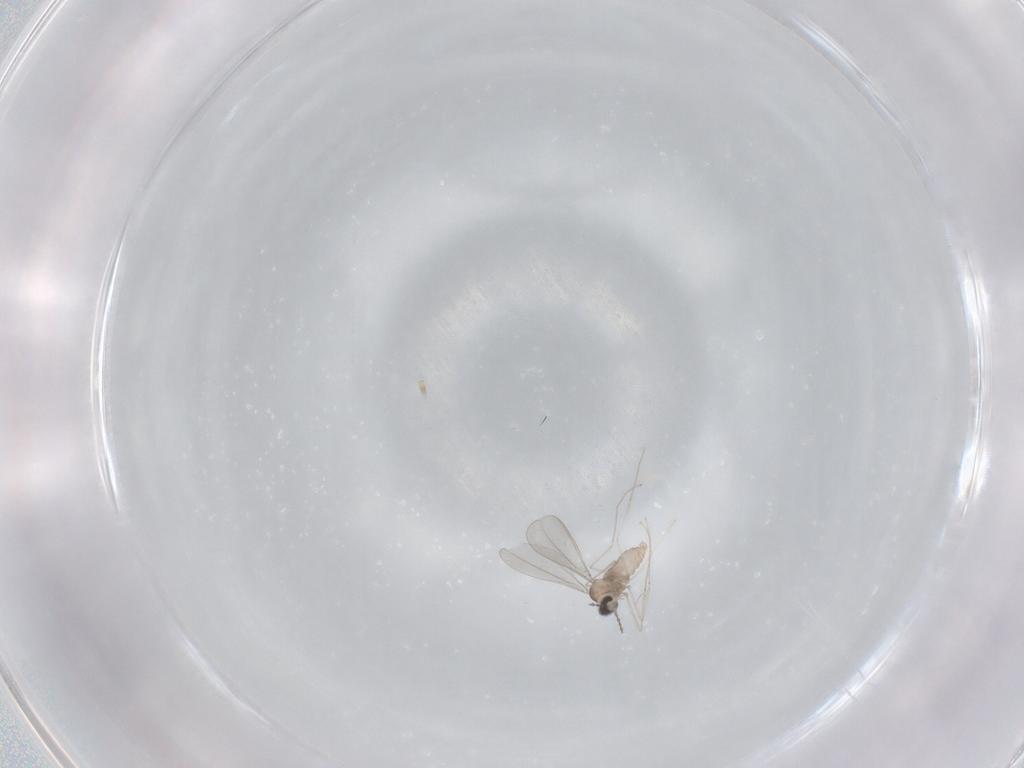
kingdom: Animalia
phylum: Arthropoda
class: Insecta
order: Diptera
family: Cecidomyiidae
